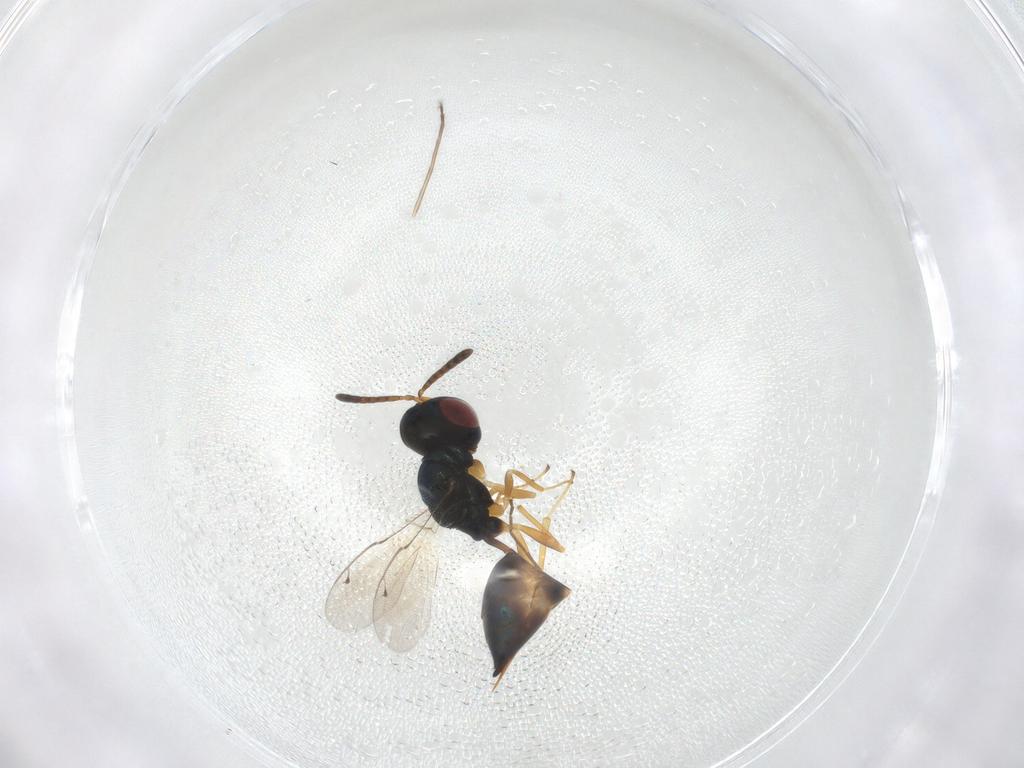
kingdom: Animalia
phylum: Arthropoda
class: Insecta
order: Hymenoptera
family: Pteromalidae
